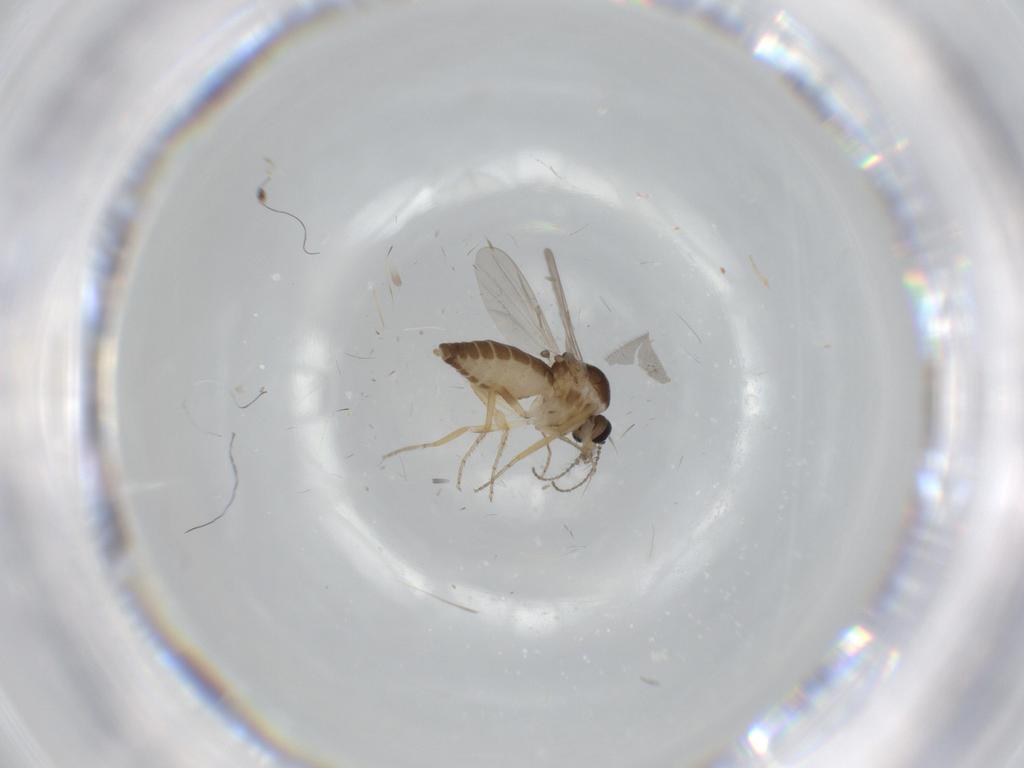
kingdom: Animalia
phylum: Arthropoda
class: Insecta
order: Diptera
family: Ceratopogonidae
